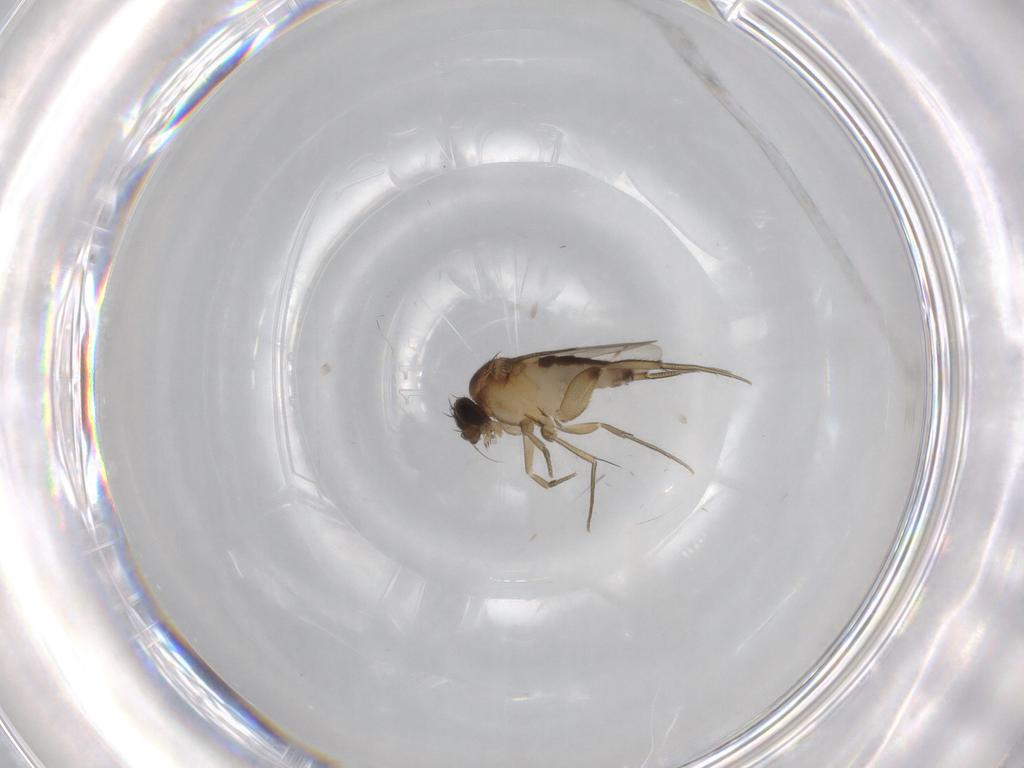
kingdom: Animalia
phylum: Arthropoda
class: Insecta
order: Diptera
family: Phoridae
